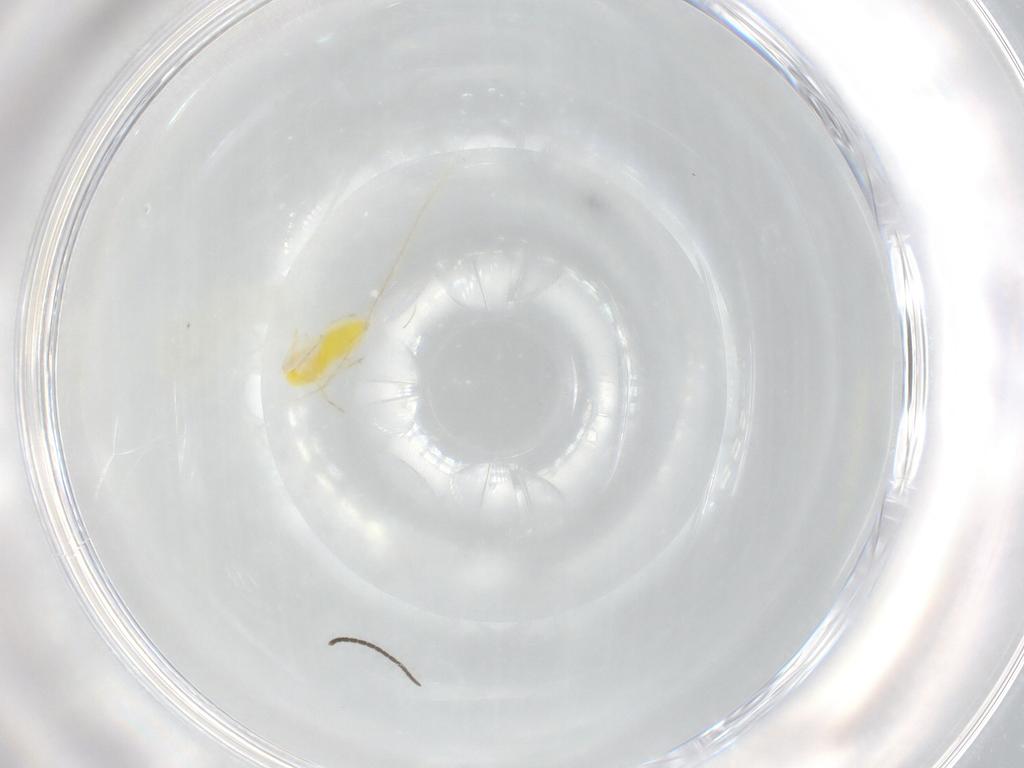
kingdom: Animalia
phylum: Arthropoda
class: Insecta
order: Hemiptera
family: Aleyrodidae
